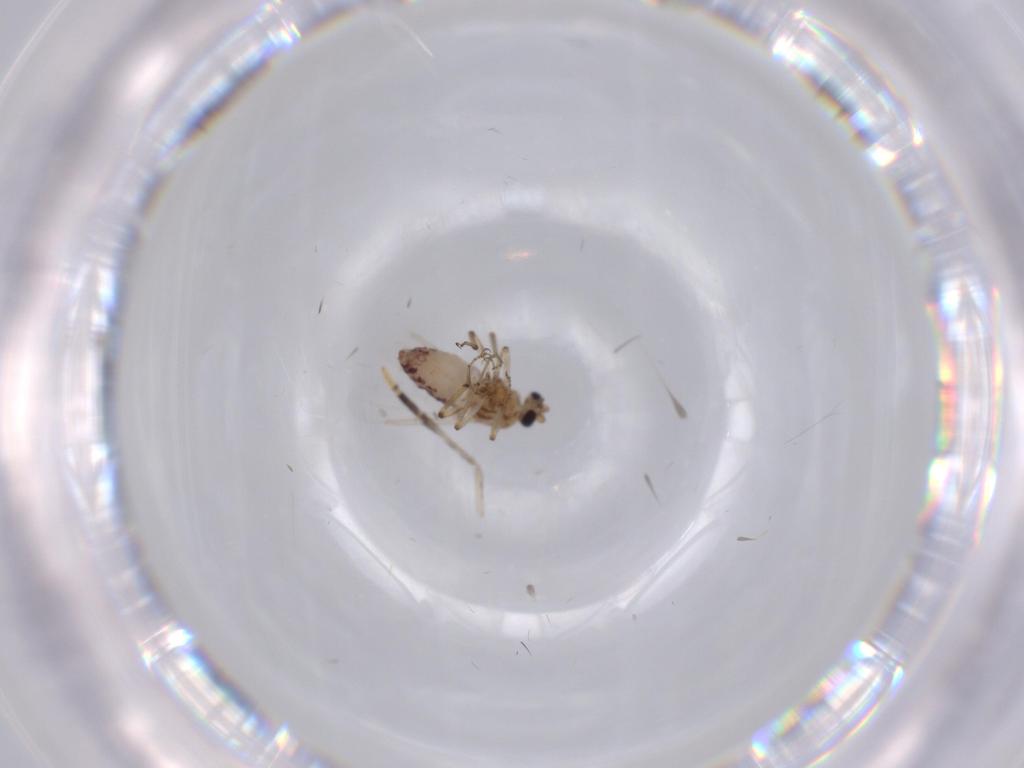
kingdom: Animalia
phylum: Arthropoda
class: Insecta
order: Diptera
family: Ceratopogonidae
